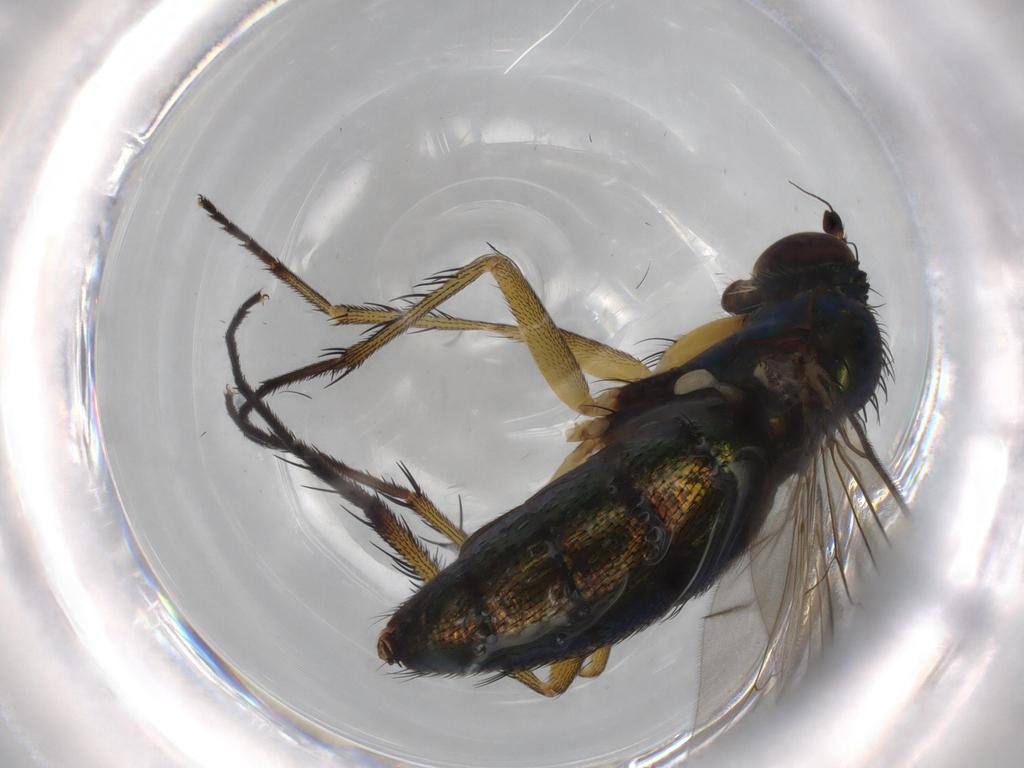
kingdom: Animalia
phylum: Arthropoda
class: Insecta
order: Diptera
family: Dolichopodidae
